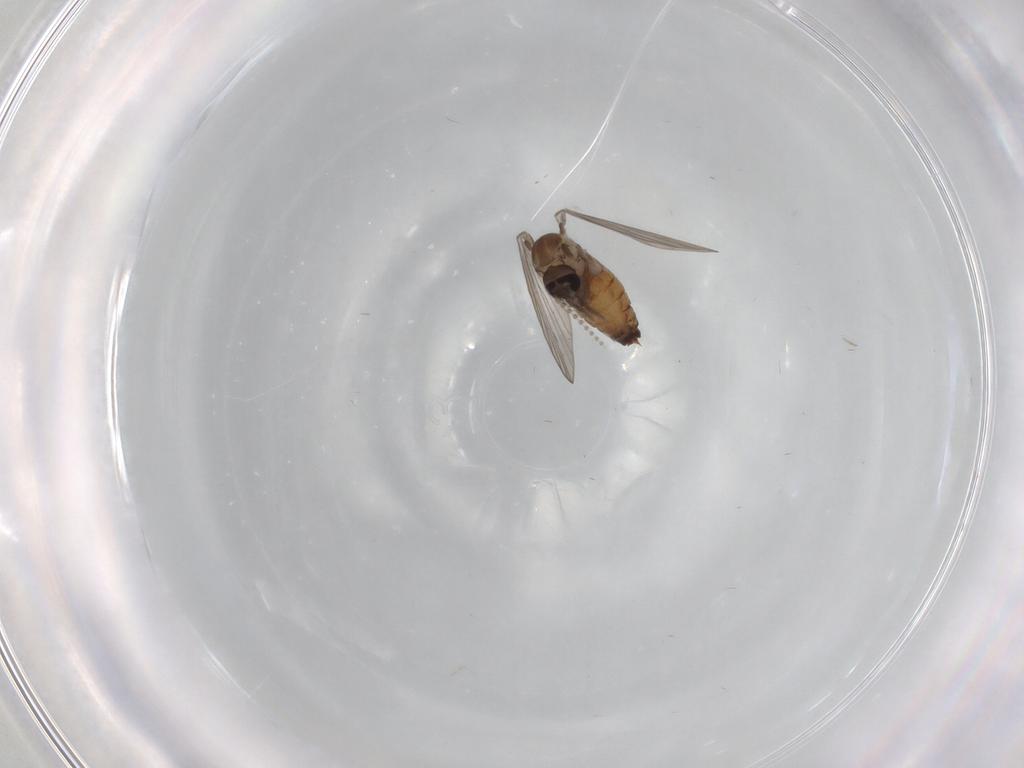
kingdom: Animalia
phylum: Arthropoda
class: Insecta
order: Diptera
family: Psychodidae
